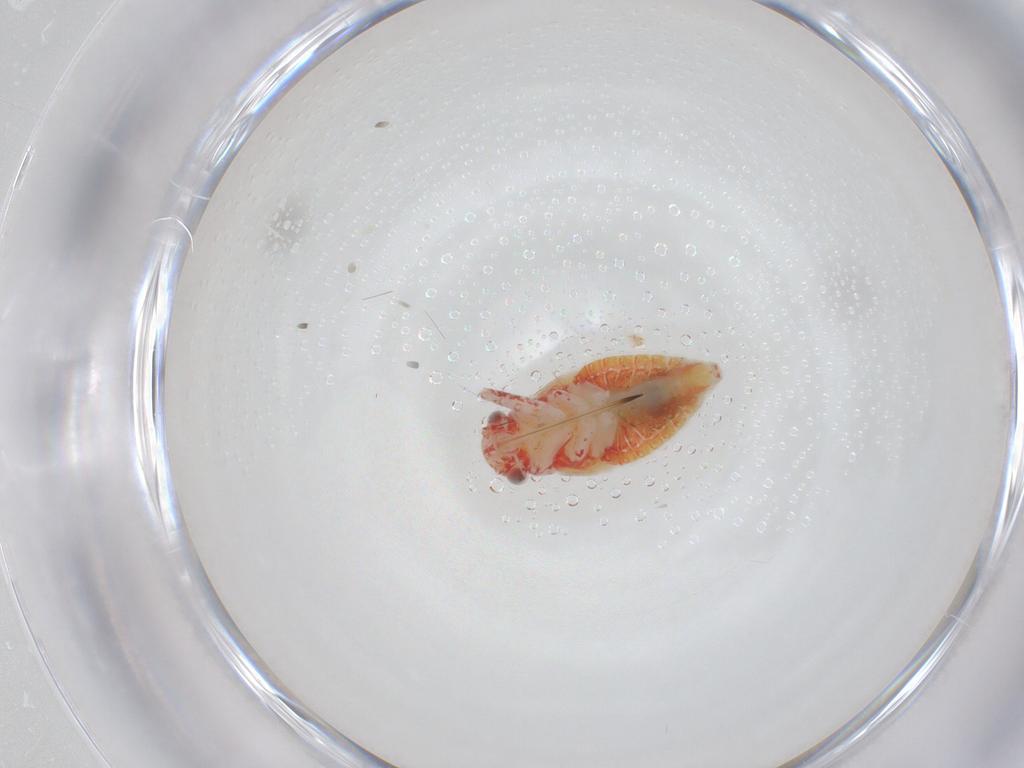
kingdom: Animalia
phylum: Arthropoda
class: Insecta
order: Hemiptera
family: Miridae
